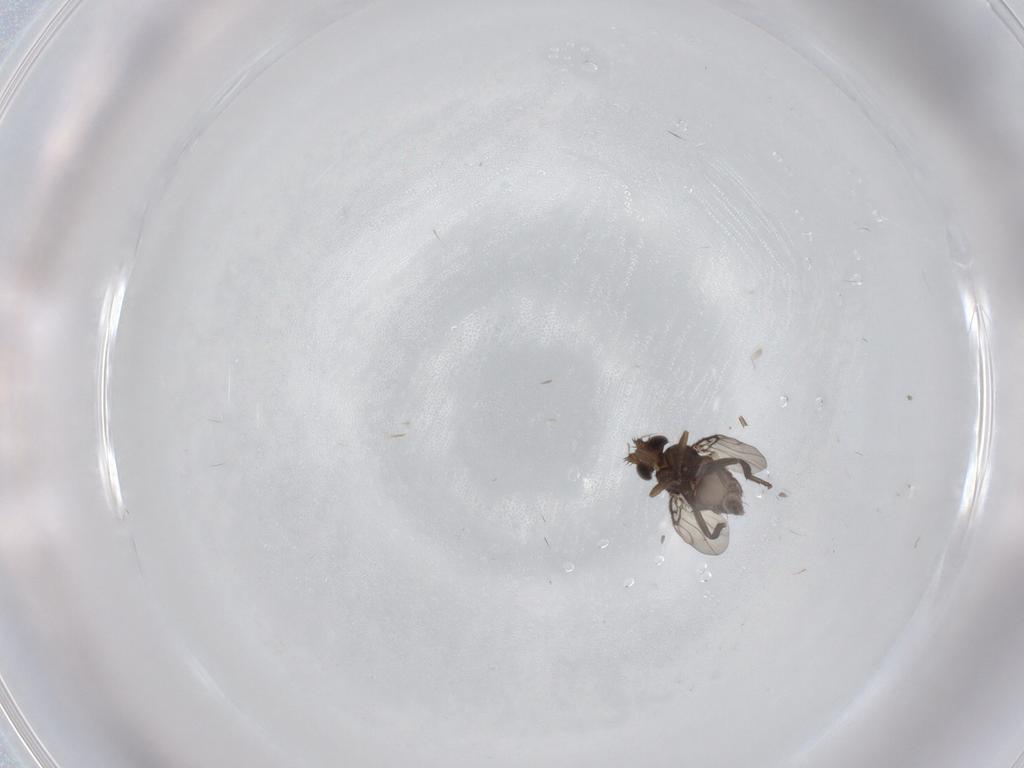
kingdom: Animalia
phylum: Arthropoda
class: Insecta
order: Diptera
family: Phoridae
